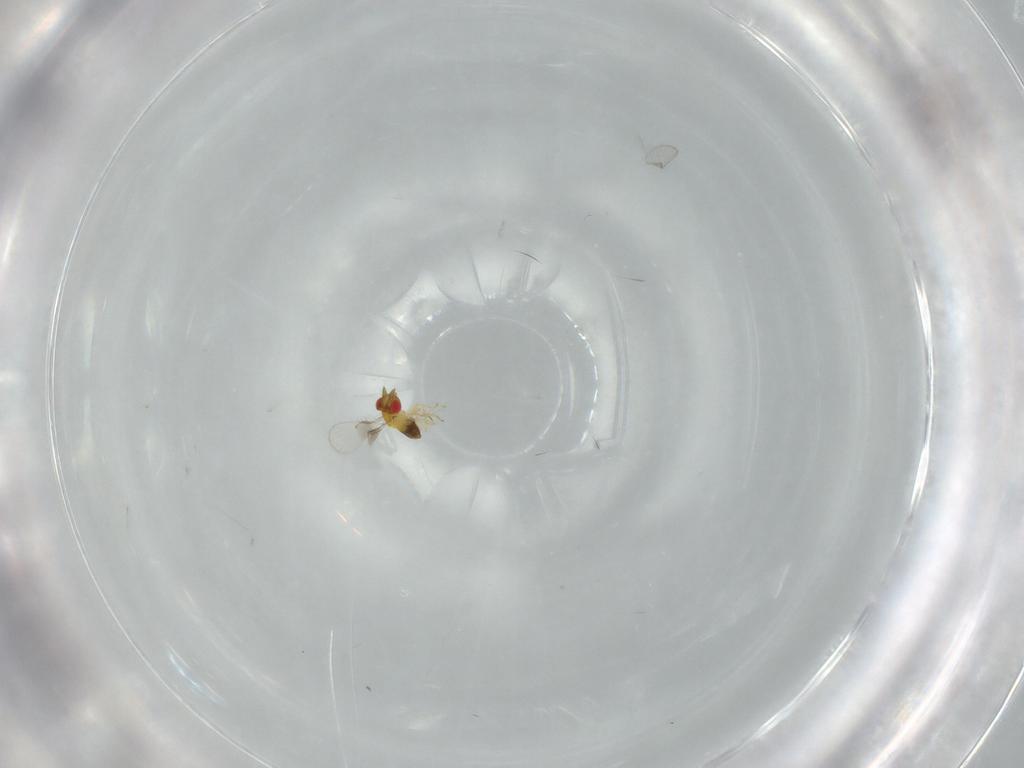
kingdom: Animalia
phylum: Arthropoda
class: Insecta
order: Hymenoptera
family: Trichogrammatidae
